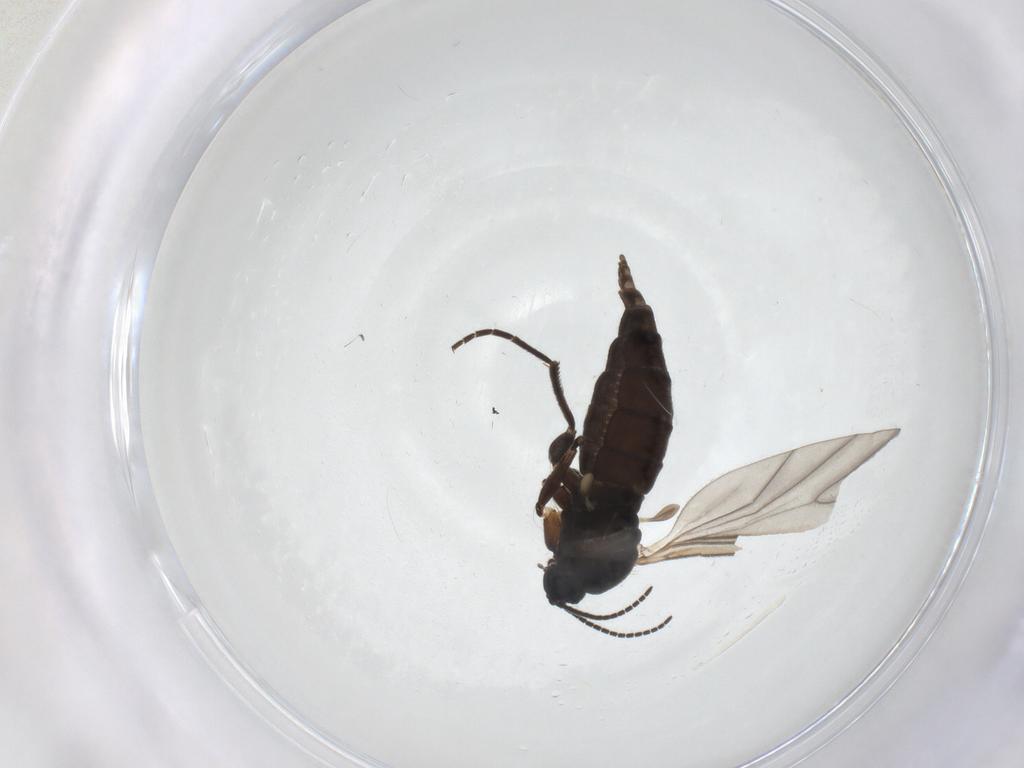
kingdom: Animalia
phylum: Arthropoda
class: Insecta
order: Diptera
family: Sciaridae
